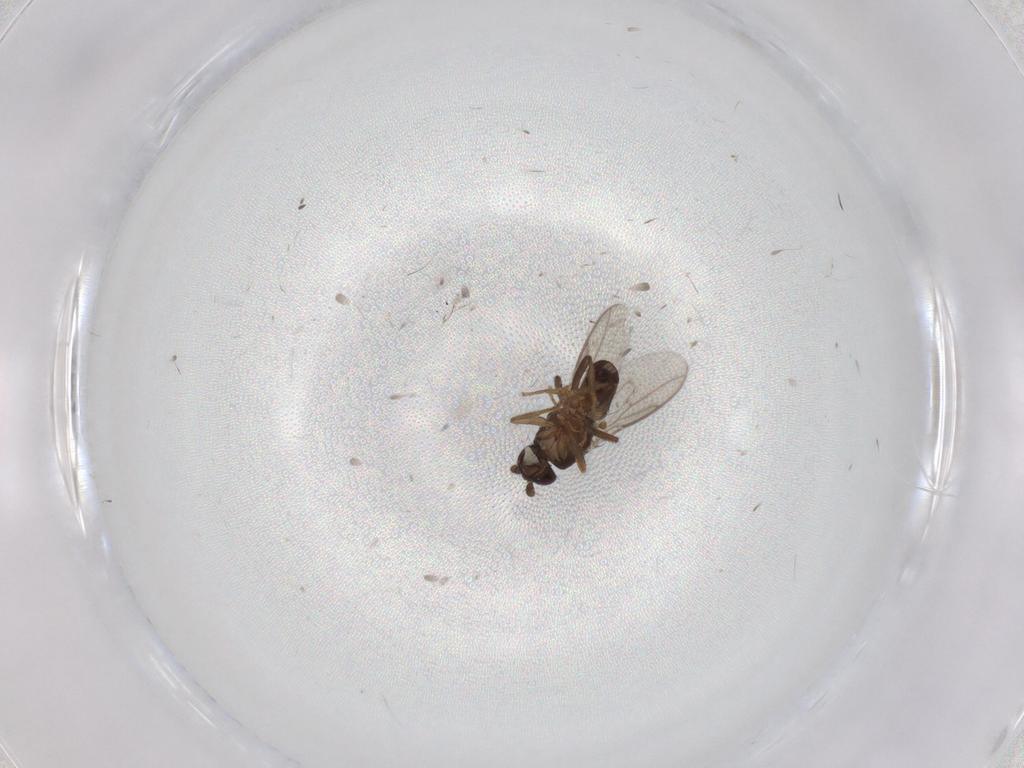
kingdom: Animalia
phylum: Arthropoda
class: Insecta
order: Diptera
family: Sphaeroceridae
